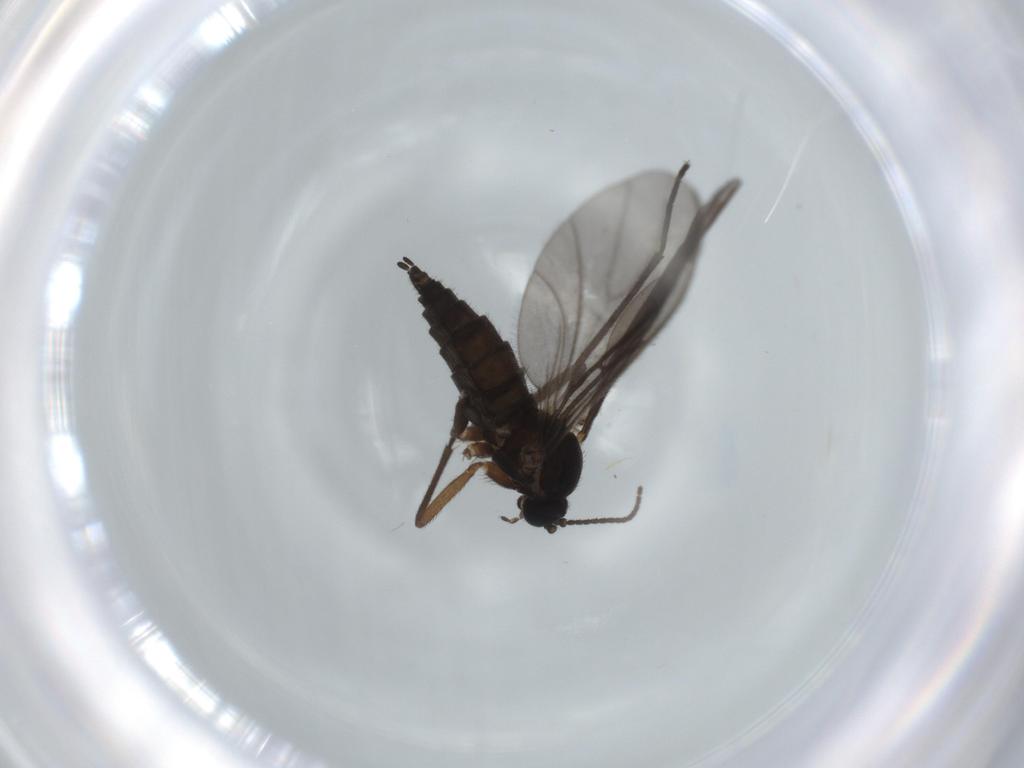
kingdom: Animalia
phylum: Arthropoda
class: Insecta
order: Diptera
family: Sciaridae
